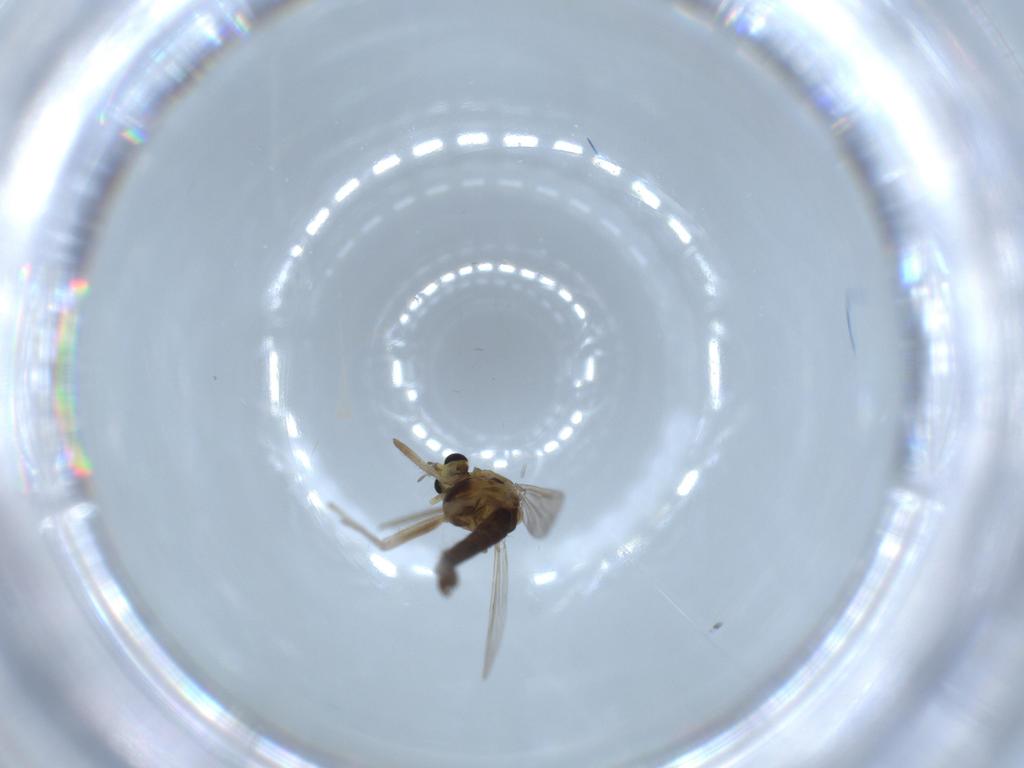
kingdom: Animalia
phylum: Arthropoda
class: Insecta
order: Diptera
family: Chironomidae
